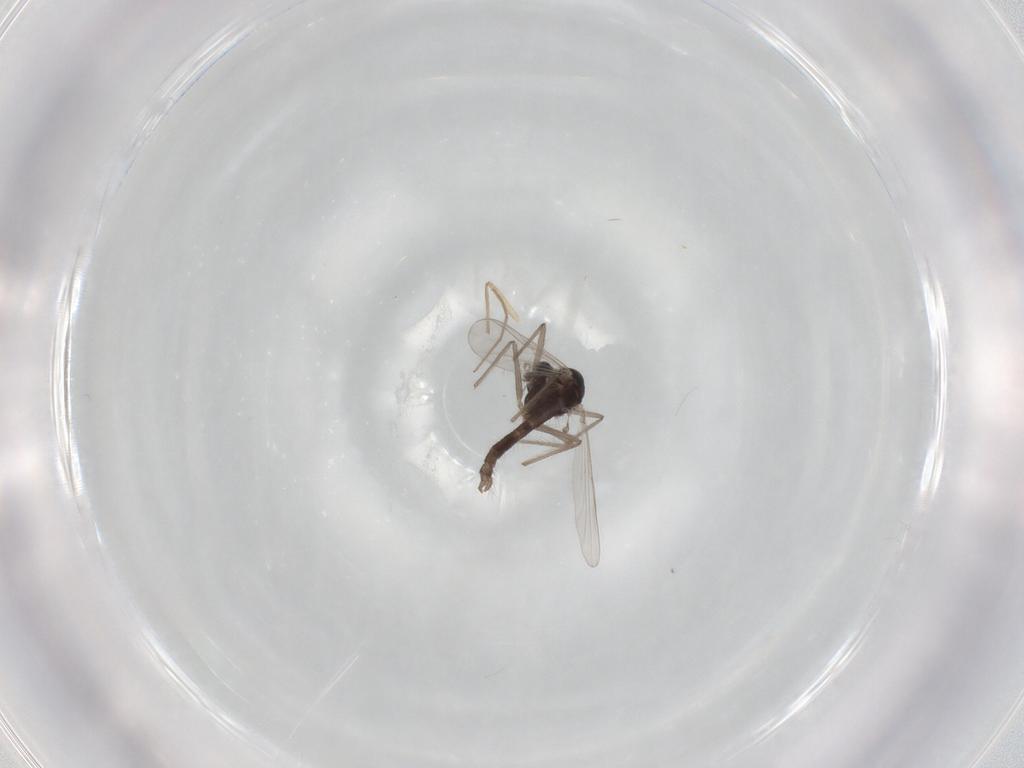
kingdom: Animalia
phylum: Arthropoda
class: Insecta
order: Diptera
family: Chironomidae
